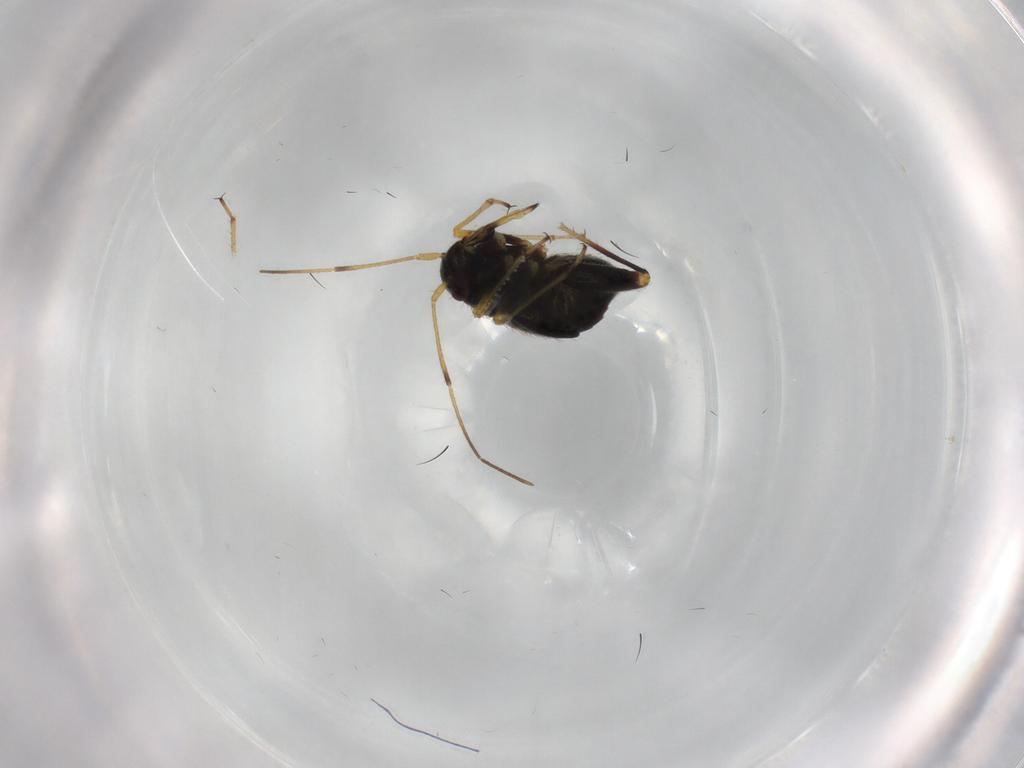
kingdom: Animalia
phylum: Arthropoda
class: Insecta
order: Hemiptera
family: Miridae
